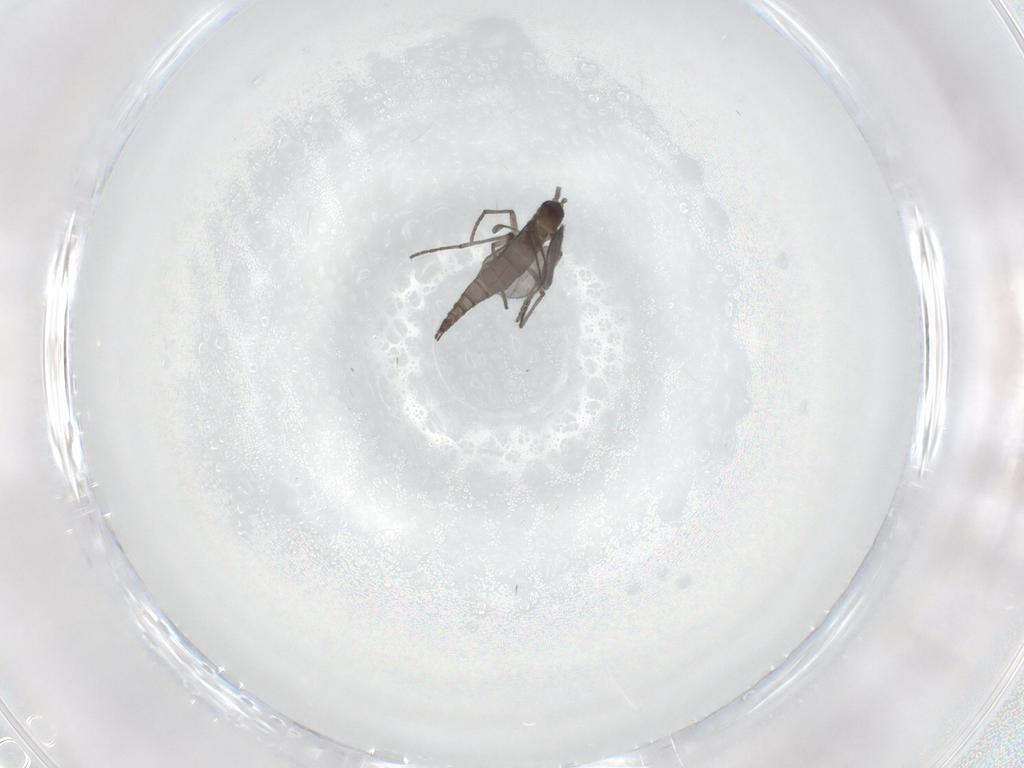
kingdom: Animalia
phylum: Arthropoda
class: Insecta
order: Diptera
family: Sciaridae
